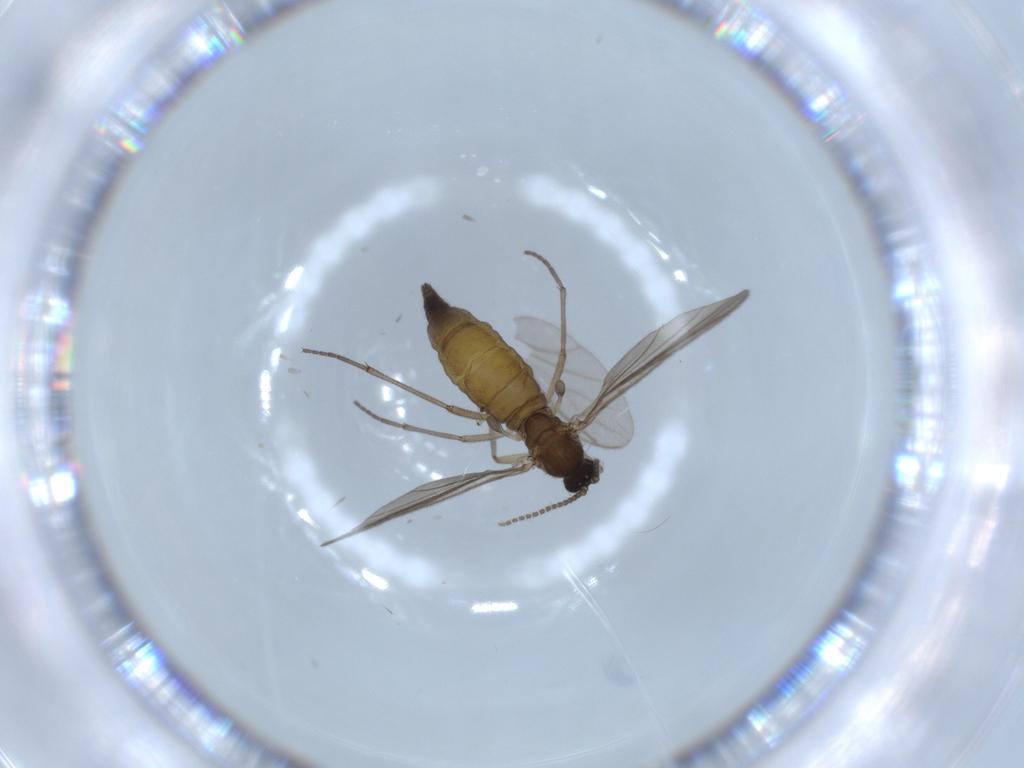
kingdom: Animalia
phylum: Arthropoda
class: Insecta
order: Diptera
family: Sciaridae
